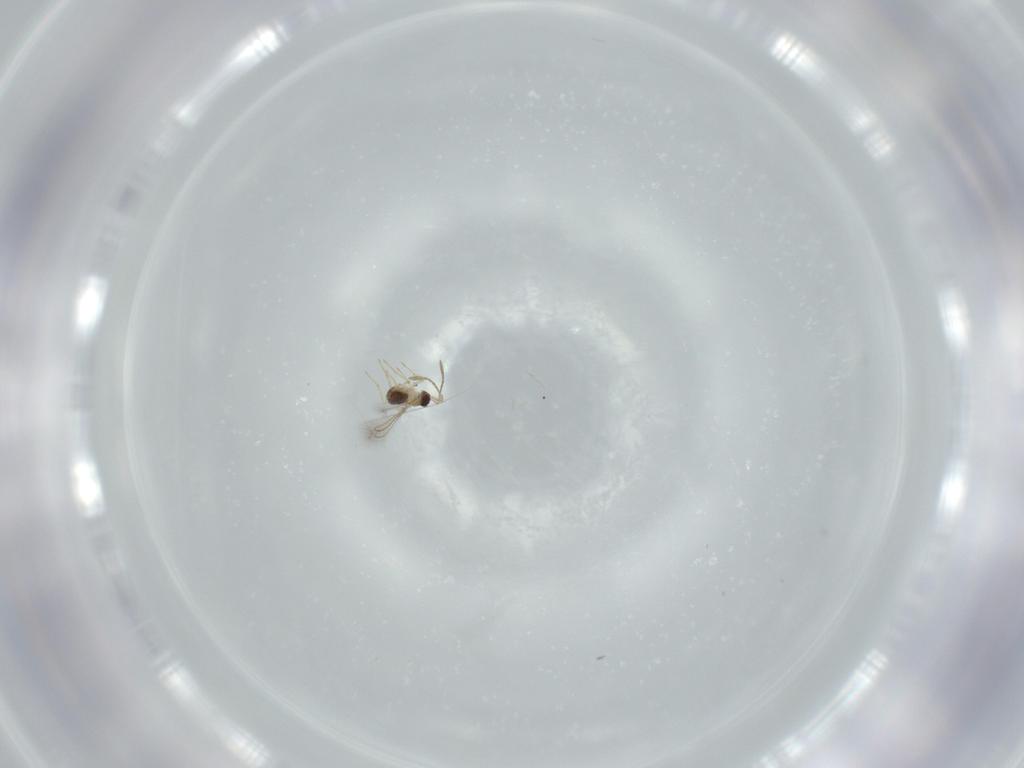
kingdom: Animalia
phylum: Arthropoda
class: Insecta
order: Hymenoptera
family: Mymaridae
